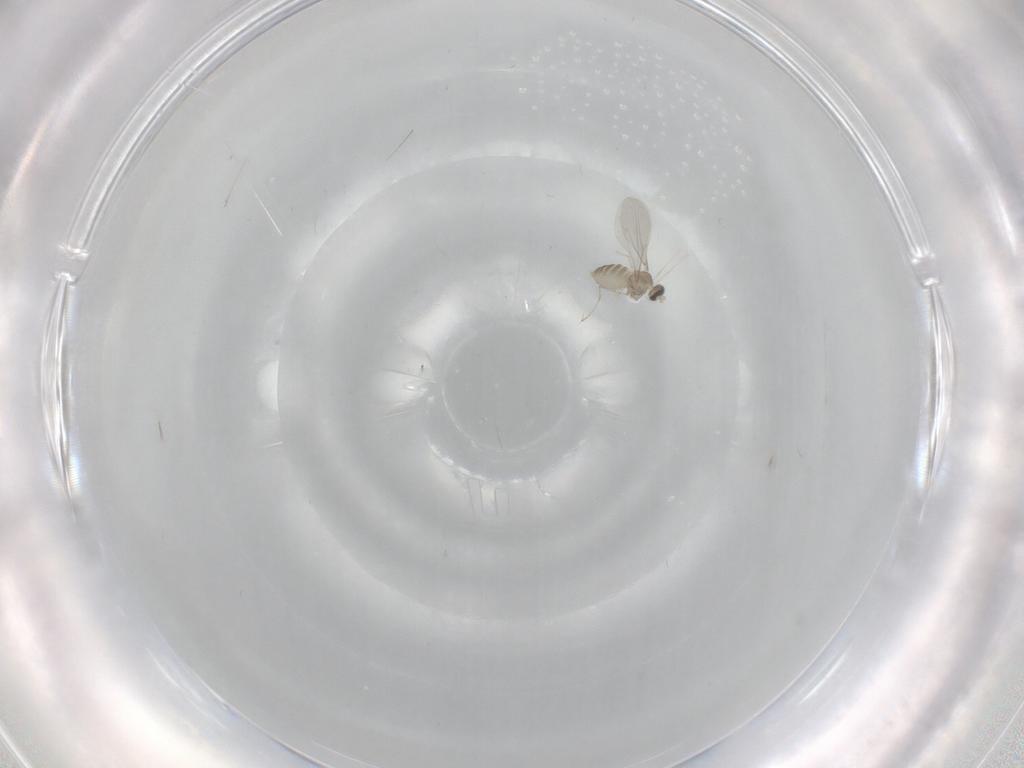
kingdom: Animalia
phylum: Arthropoda
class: Insecta
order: Diptera
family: Cecidomyiidae
